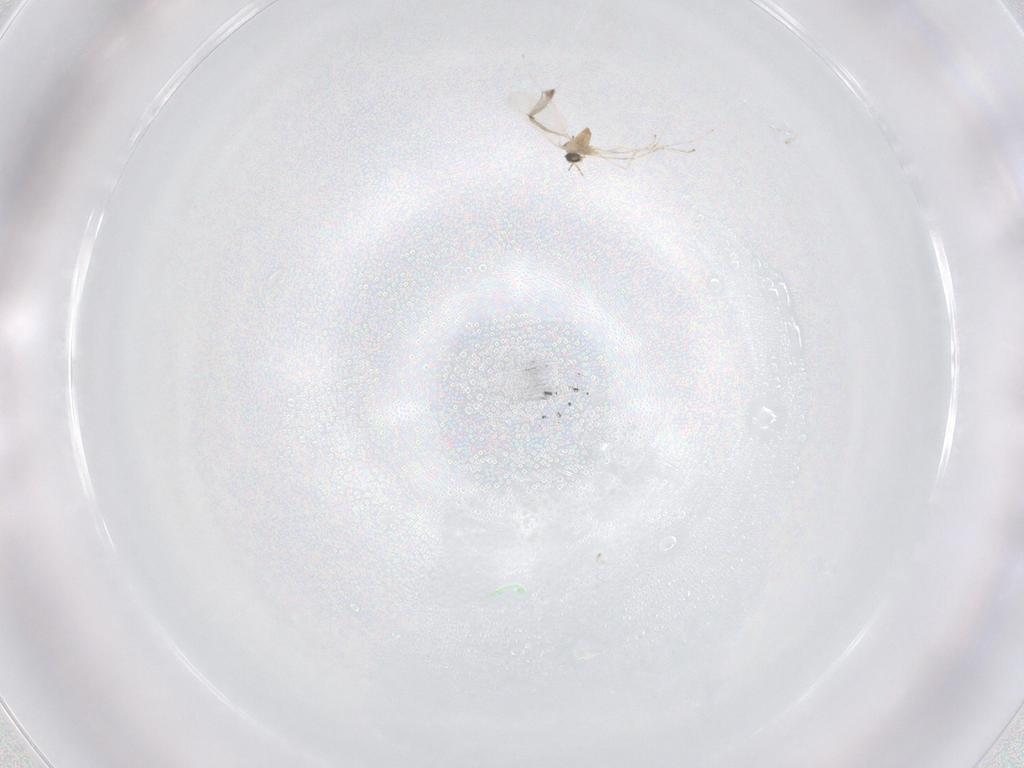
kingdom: Animalia
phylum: Arthropoda
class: Insecta
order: Diptera
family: Cecidomyiidae
